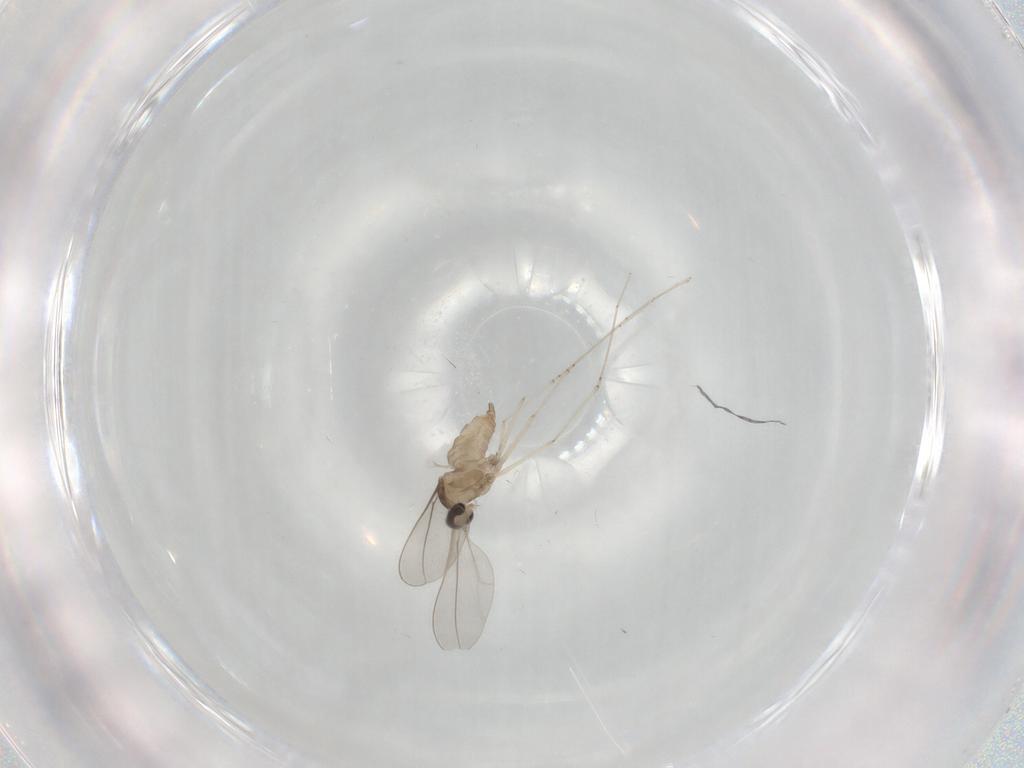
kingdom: Animalia
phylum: Arthropoda
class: Insecta
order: Diptera
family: Cecidomyiidae
